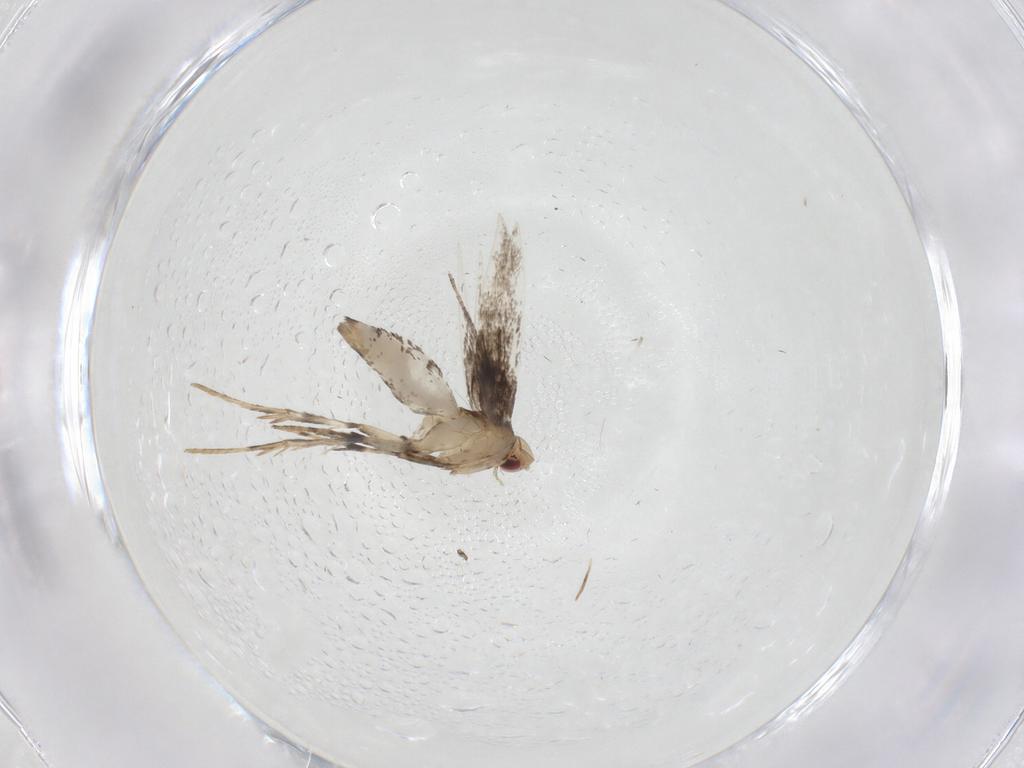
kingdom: Animalia
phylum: Arthropoda
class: Insecta
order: Lepidoptera
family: Gracillariidae
